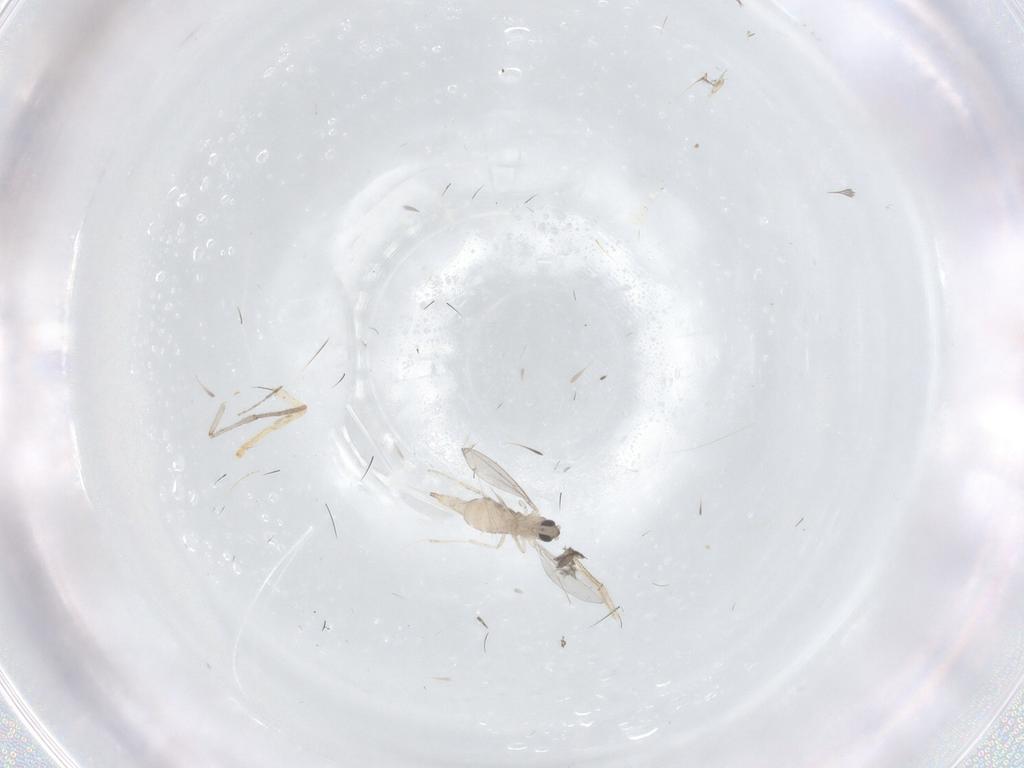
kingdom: Animalia
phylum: Arthropoda
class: Insecta
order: Diptera
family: Psychodidae
